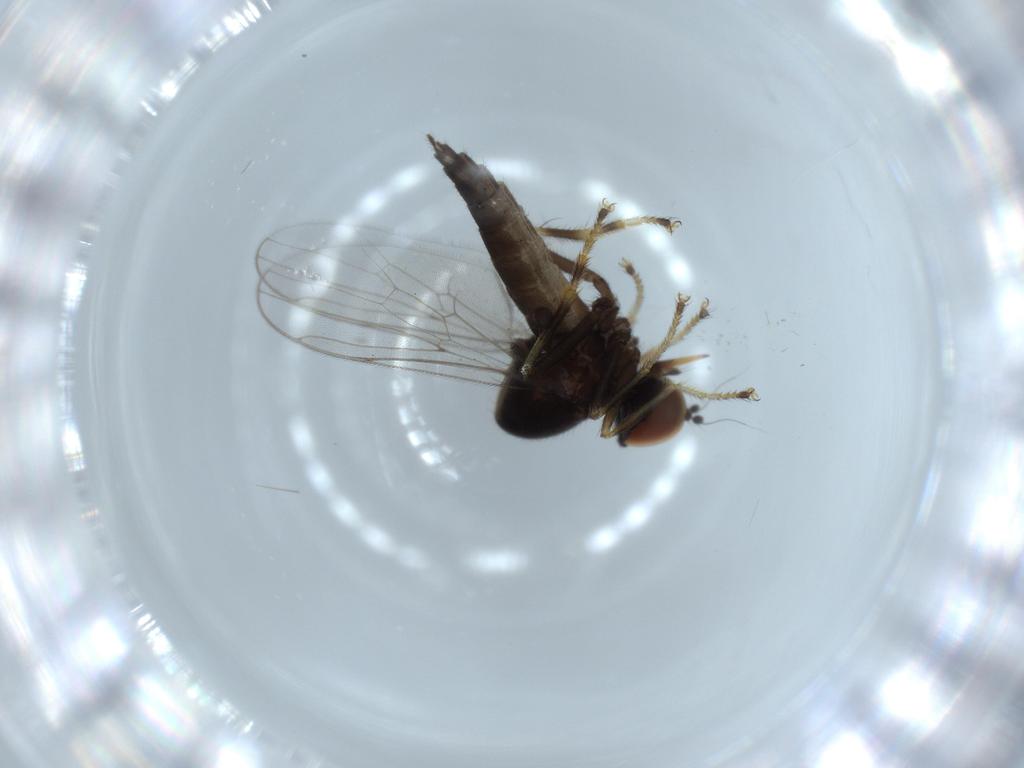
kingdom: Animalia
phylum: Arthropoda
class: Insecta
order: Diptera
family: Hybotidae
